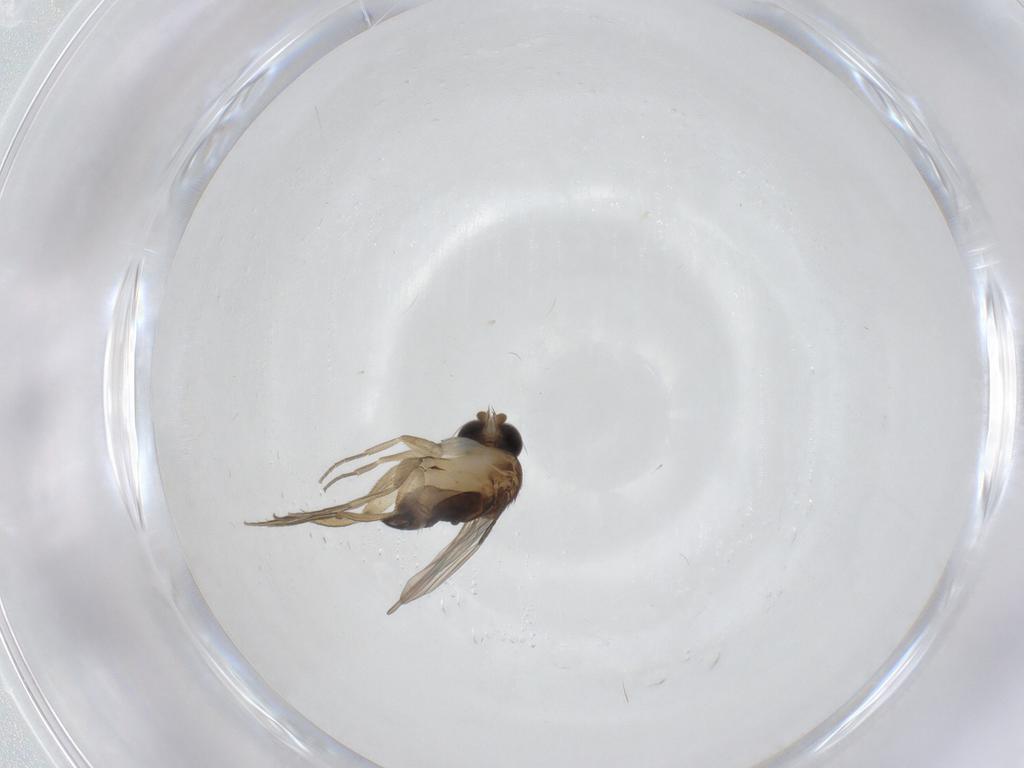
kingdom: Animalia
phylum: Arthropoda
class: Insecta
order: Diptera
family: Phoridae
